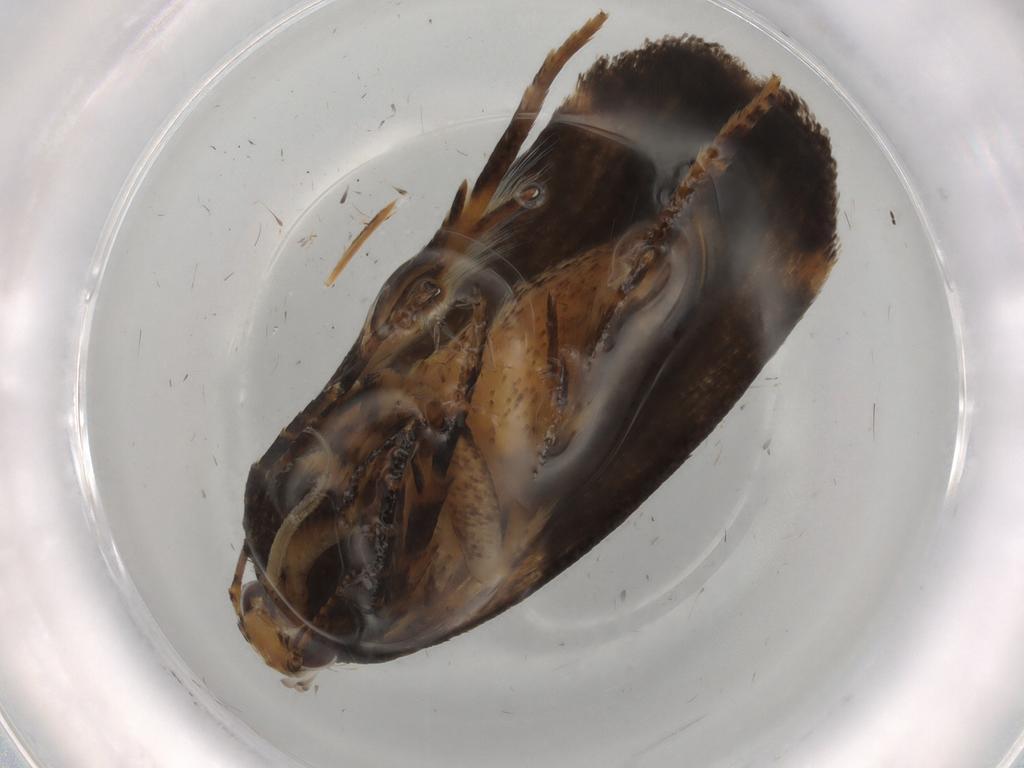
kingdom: Animalia
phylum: Arthropoda
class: Insecta
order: Lepidoptera
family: Gelechiidae
